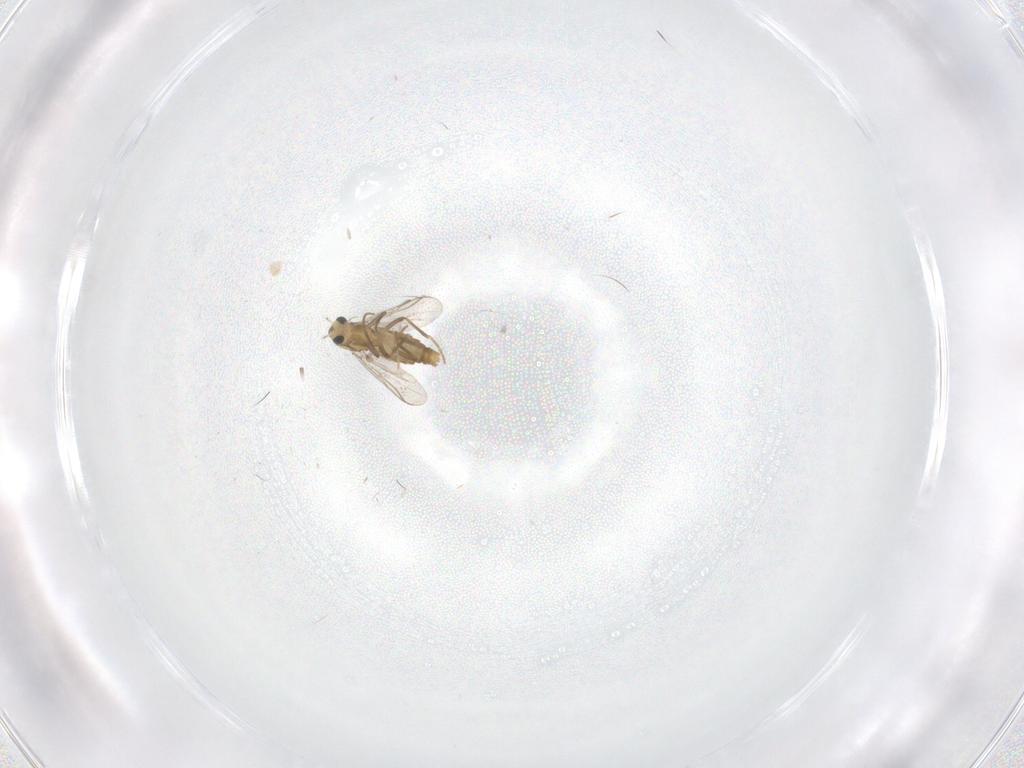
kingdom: Animalia
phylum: Arthropoda
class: Insecta
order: Diptera
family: Chironomidae
